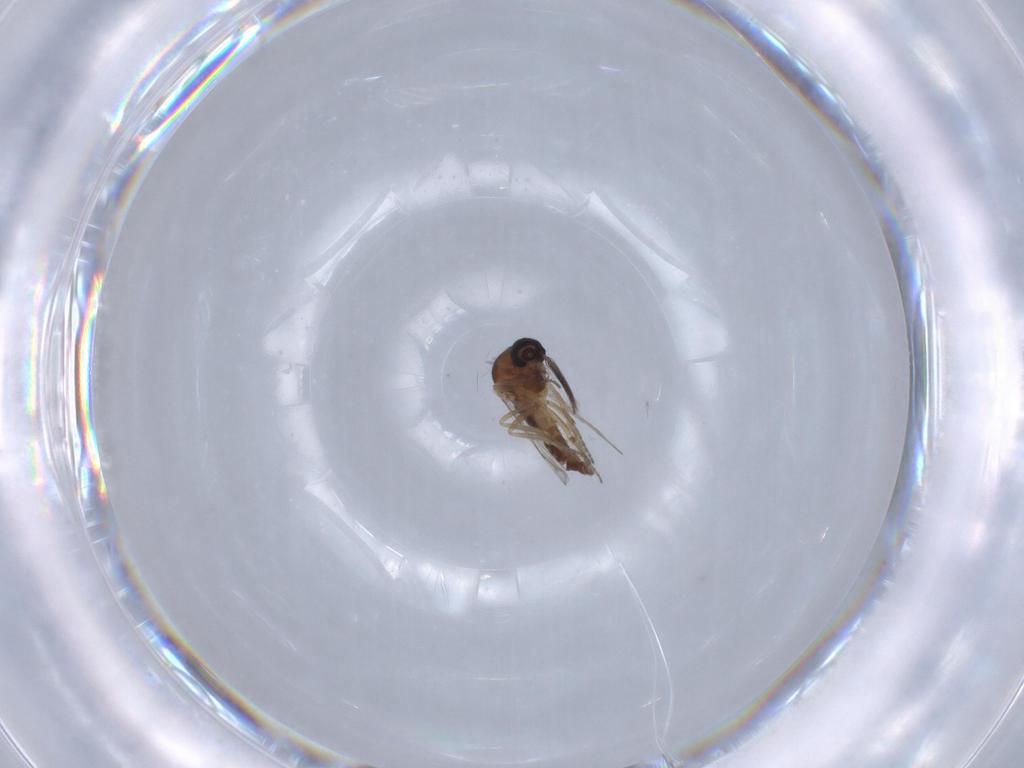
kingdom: Animalia
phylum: Arthropoda
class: Insecta
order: Diptera
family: Ceratopogonidae
